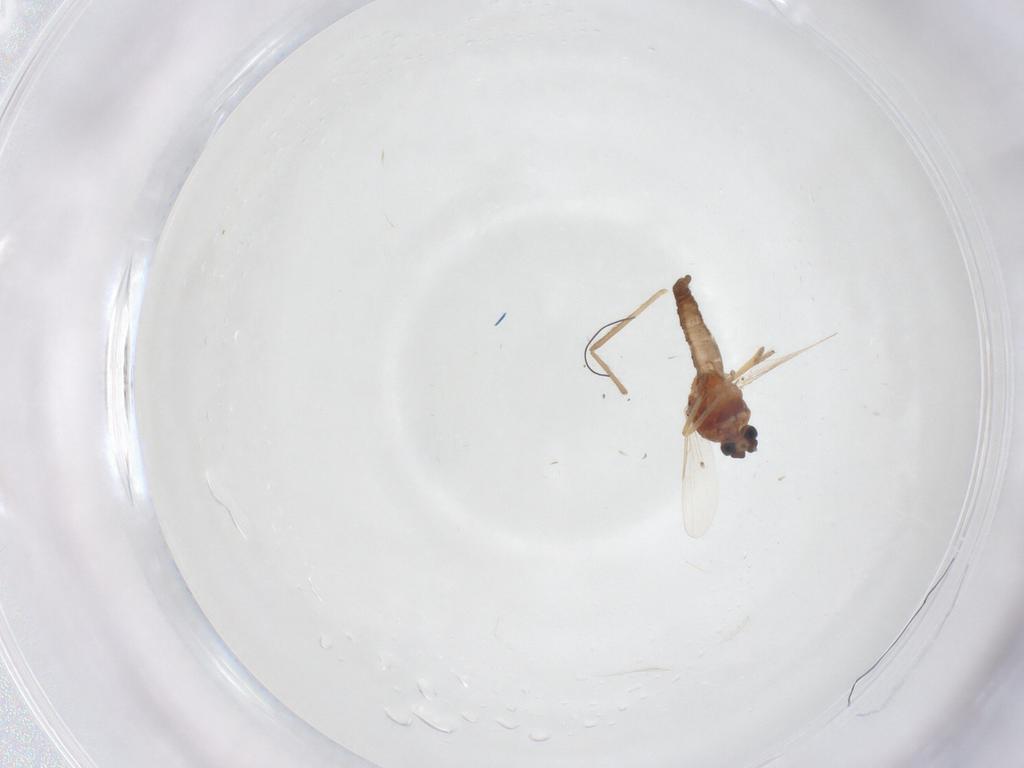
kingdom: Animalia
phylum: Arthropoda
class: Insecta
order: Diptera
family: Ceratopogonidae
